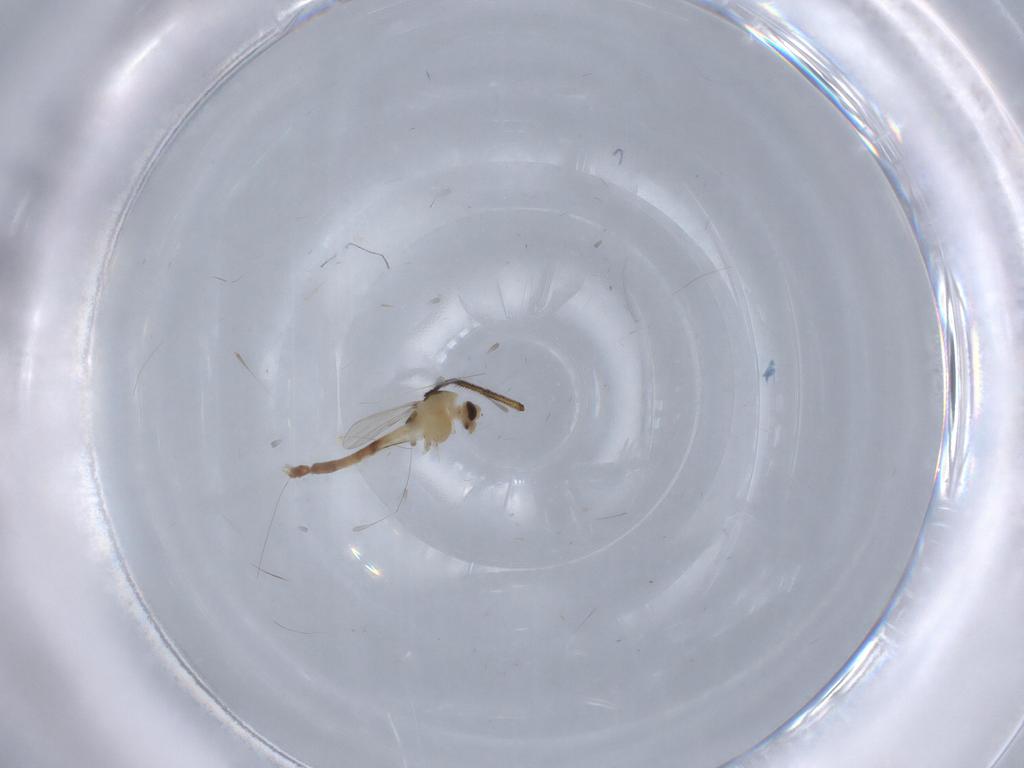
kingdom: Animalia
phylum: Arthropoda
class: Insecta
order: Diptera
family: Chironomidae
